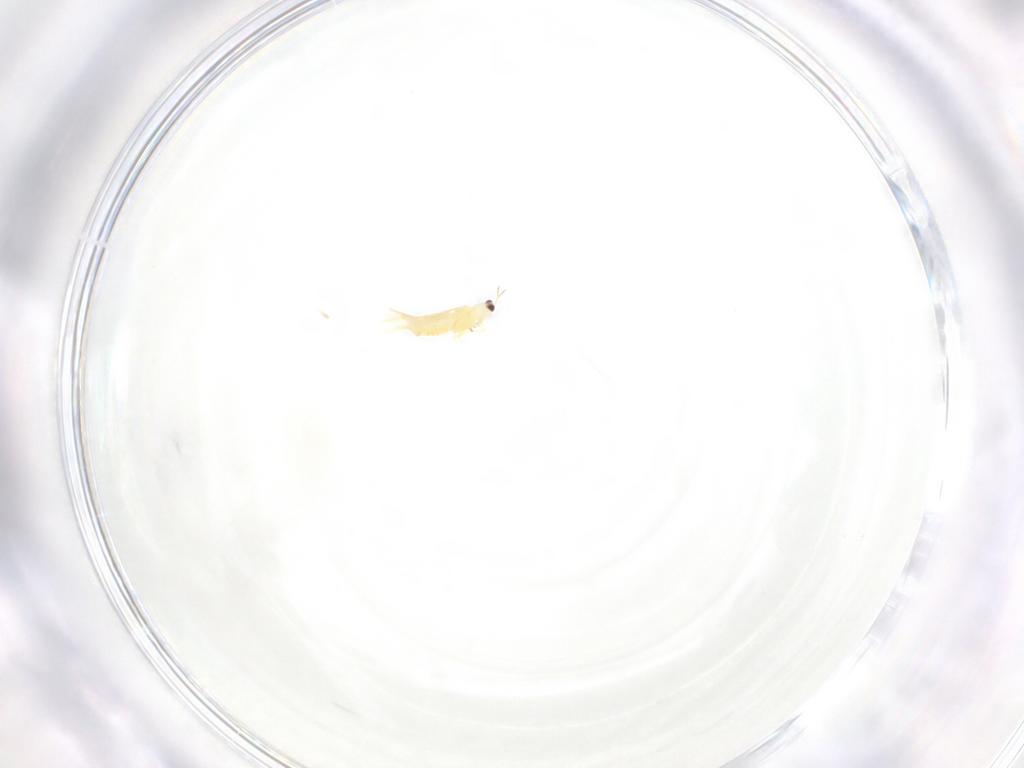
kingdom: Animalia
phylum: Arthropoda
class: Insecta
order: Thysanoptera
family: Thripidae
